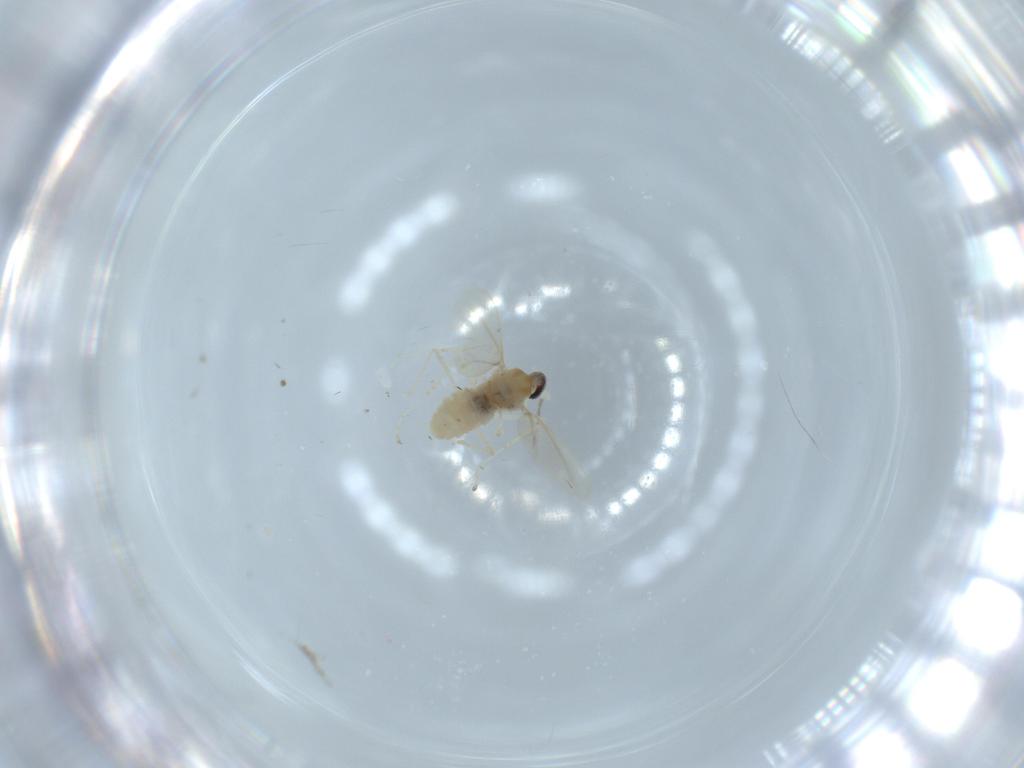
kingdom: Animalia
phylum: Arthropoda
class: Insecta
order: Diptera
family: Cecidomyiidae
